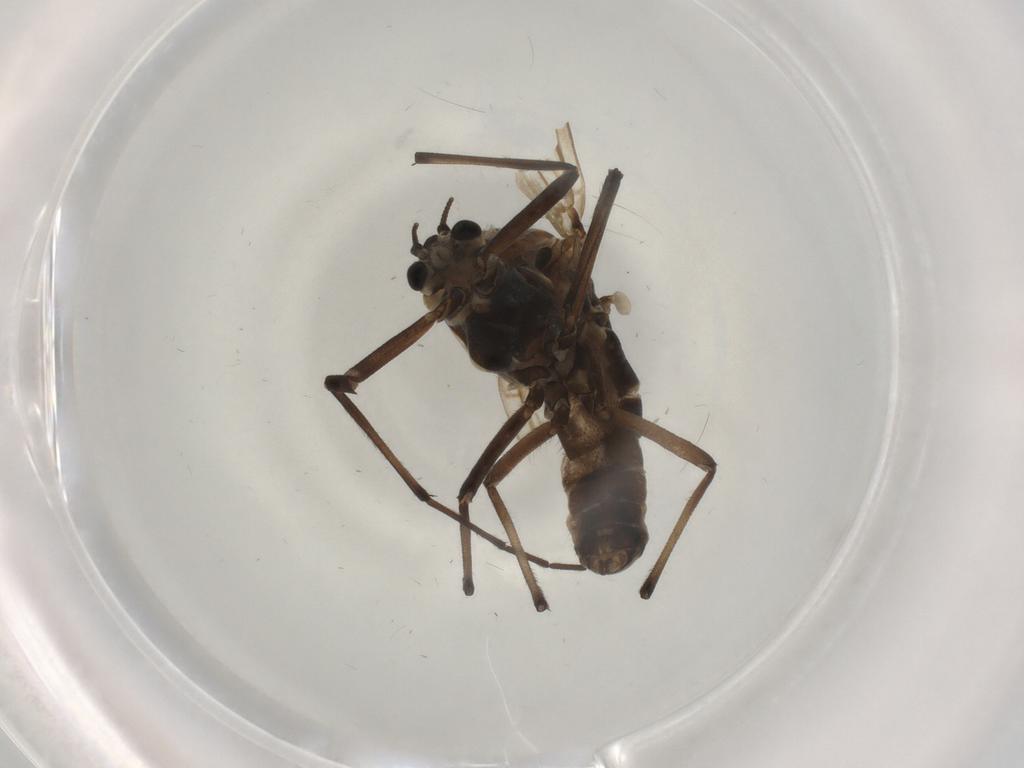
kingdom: Animalia
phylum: Arthropoda
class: Insecta
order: Diptera
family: Chironomidae
